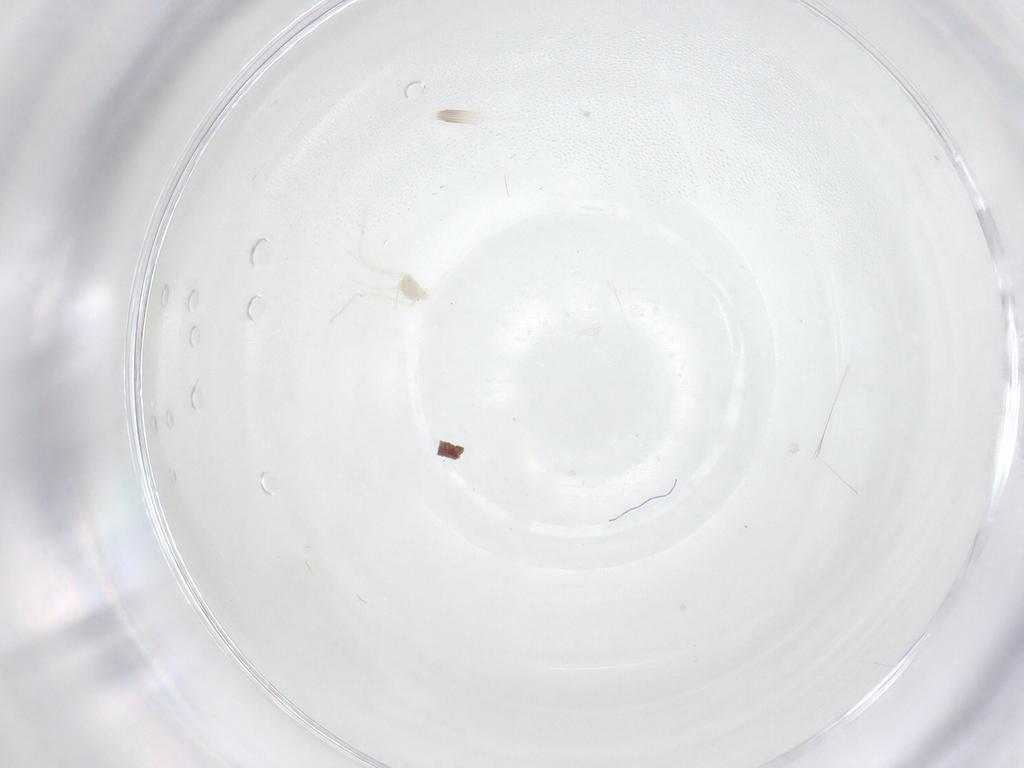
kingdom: Animalia
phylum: Arthropoda
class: Insecta
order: Diptera
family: Asilidae
